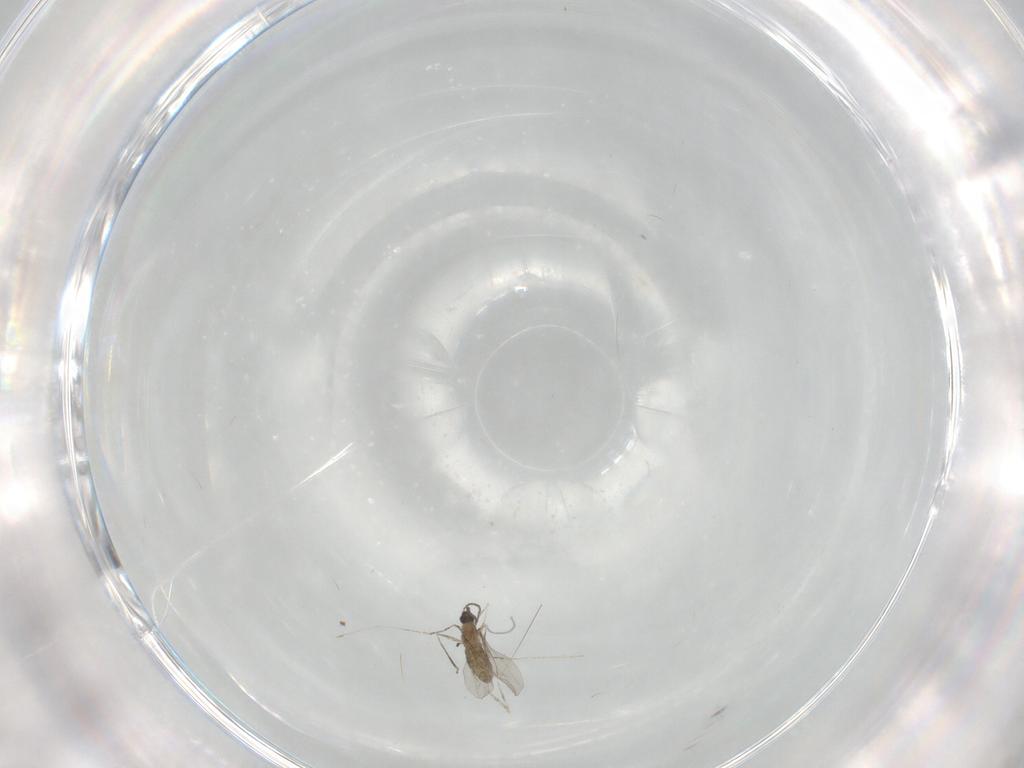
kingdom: Animalia
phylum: Arthropoda
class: Insecta
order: Diptera
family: Cecidomyiidae
